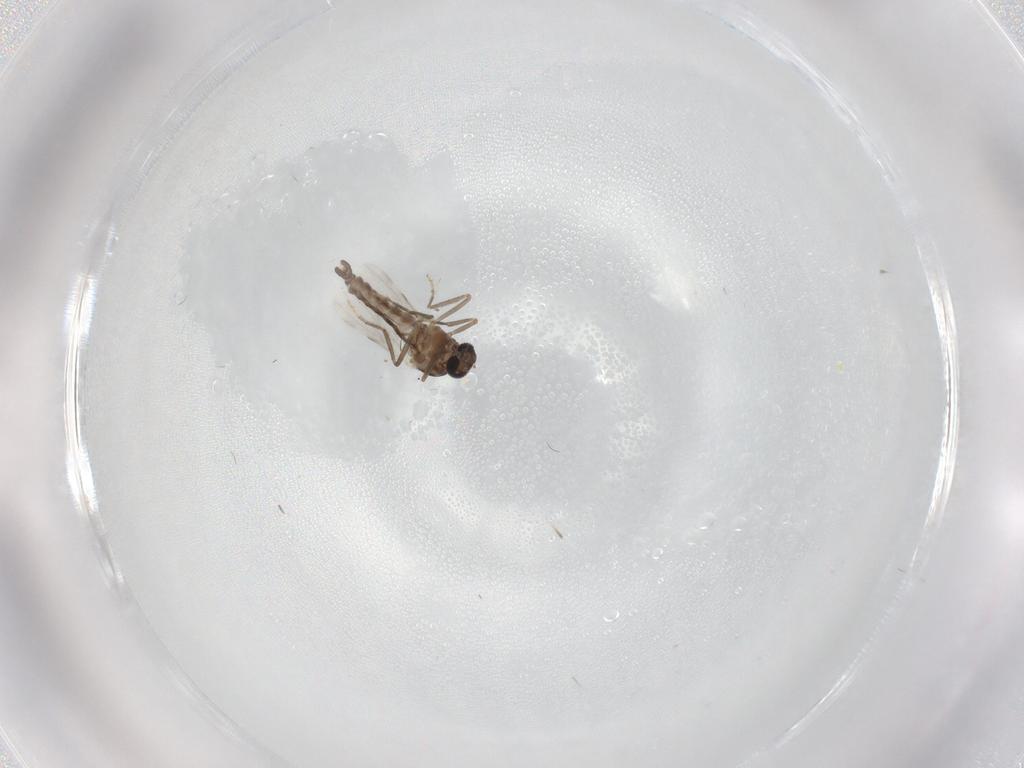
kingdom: Animalia
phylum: Arthropoda
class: Insecta
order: Diptera
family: Ceratopogonidae
